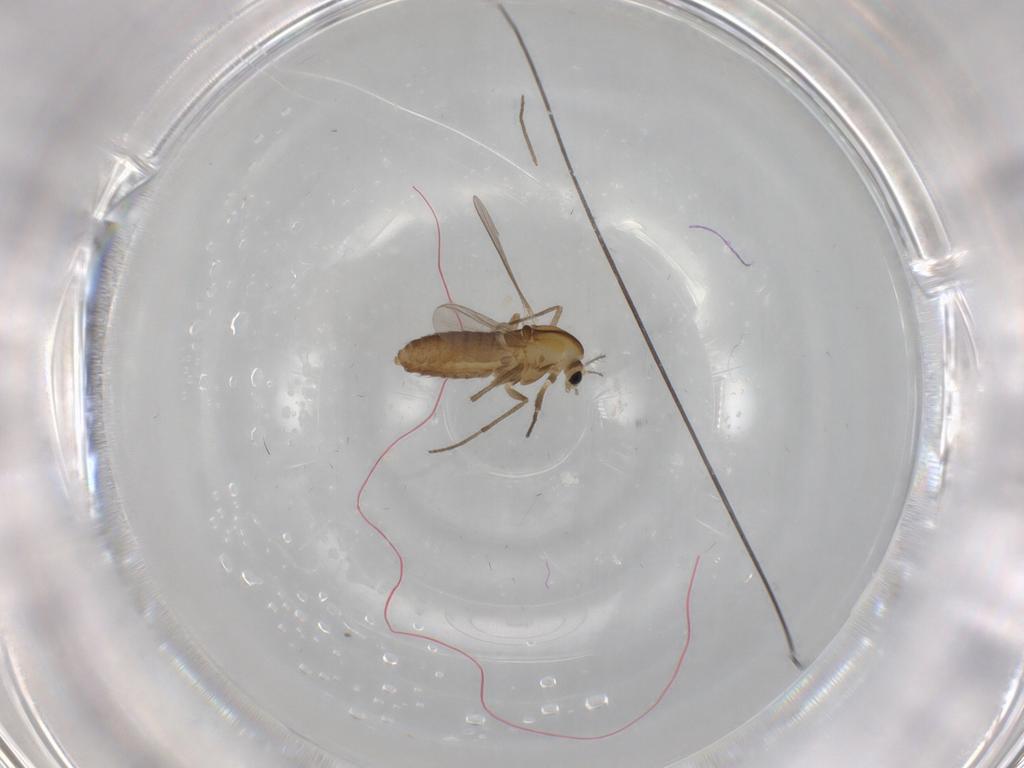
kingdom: Animalia
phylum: Arthropoda
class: Insecta
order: Diptera
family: Chironomidae
